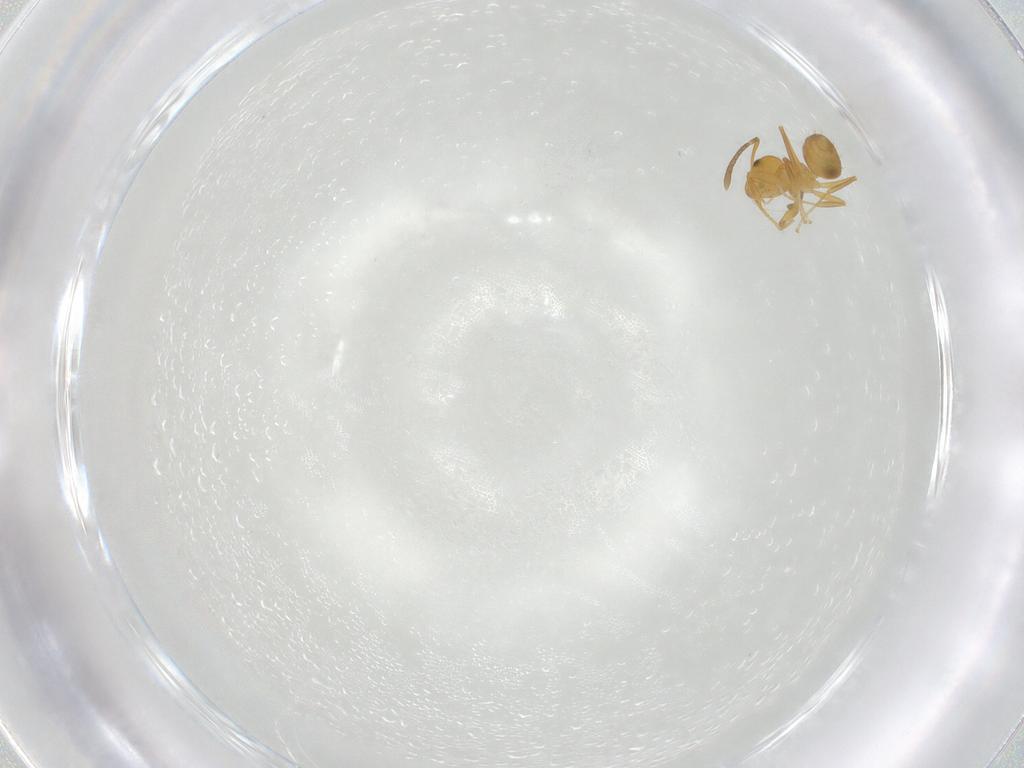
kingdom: Animalia
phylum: Arthropoda
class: Insecta
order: Hymenoptera
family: Formicidae
